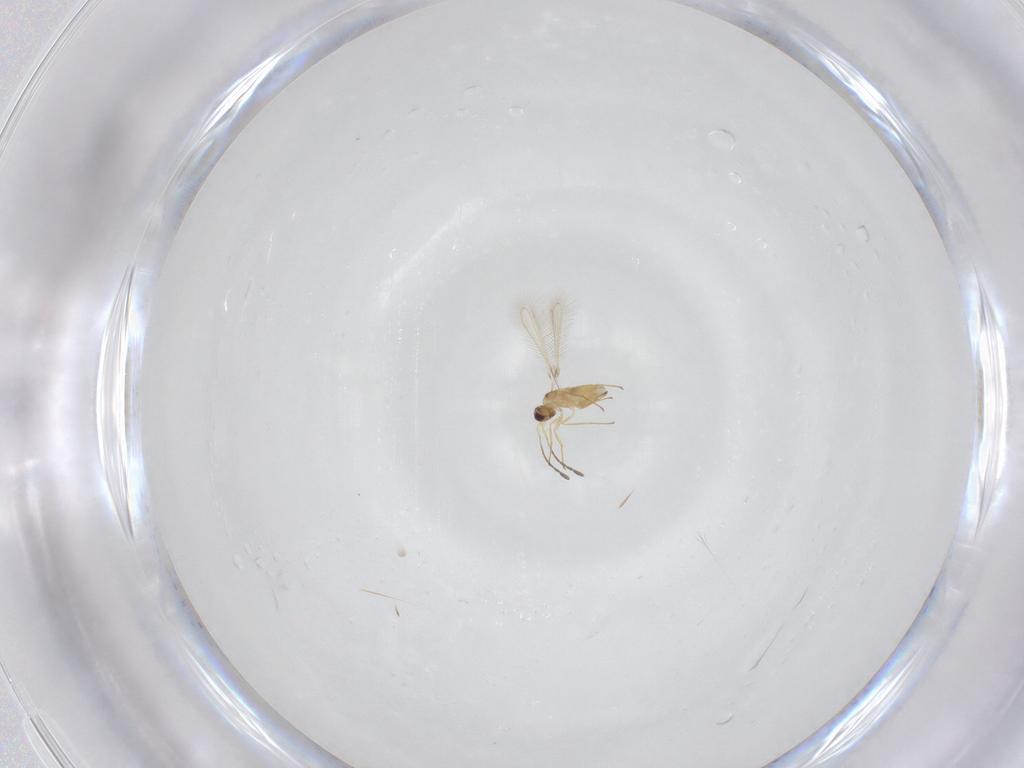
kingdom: Animalia
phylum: Arthropoda
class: Insecta
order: Hymenoptera
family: Mymaridae
